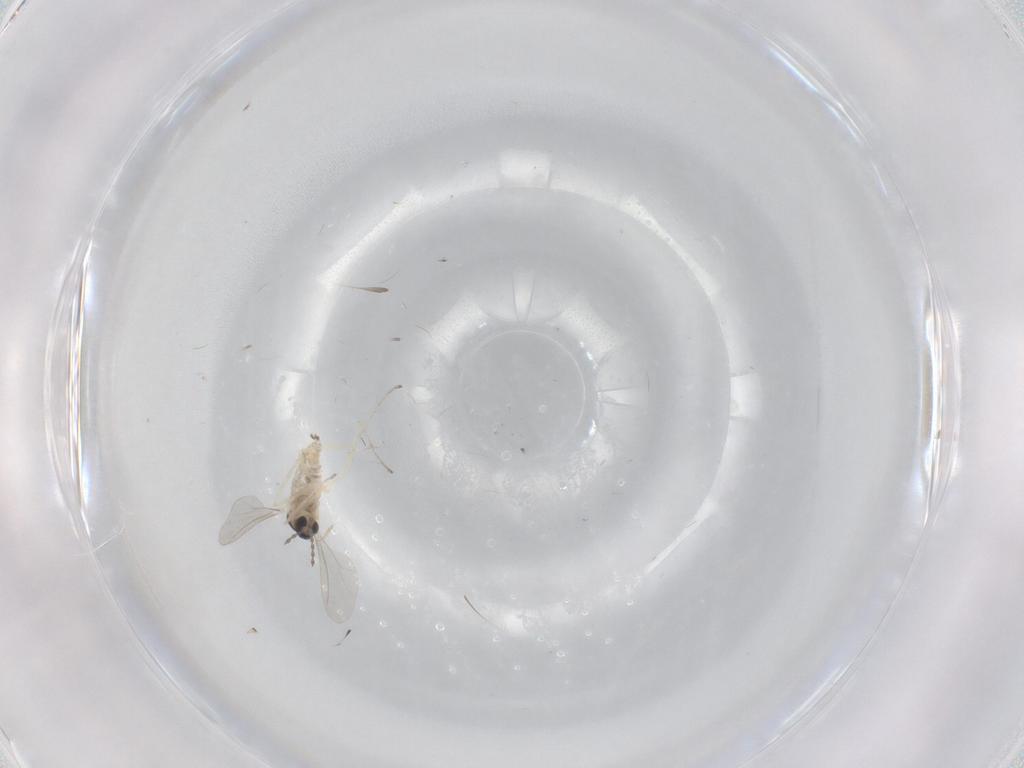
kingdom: Animalia
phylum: Arthropoda
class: Insecta
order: Diptera
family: Cecidomyiidae
